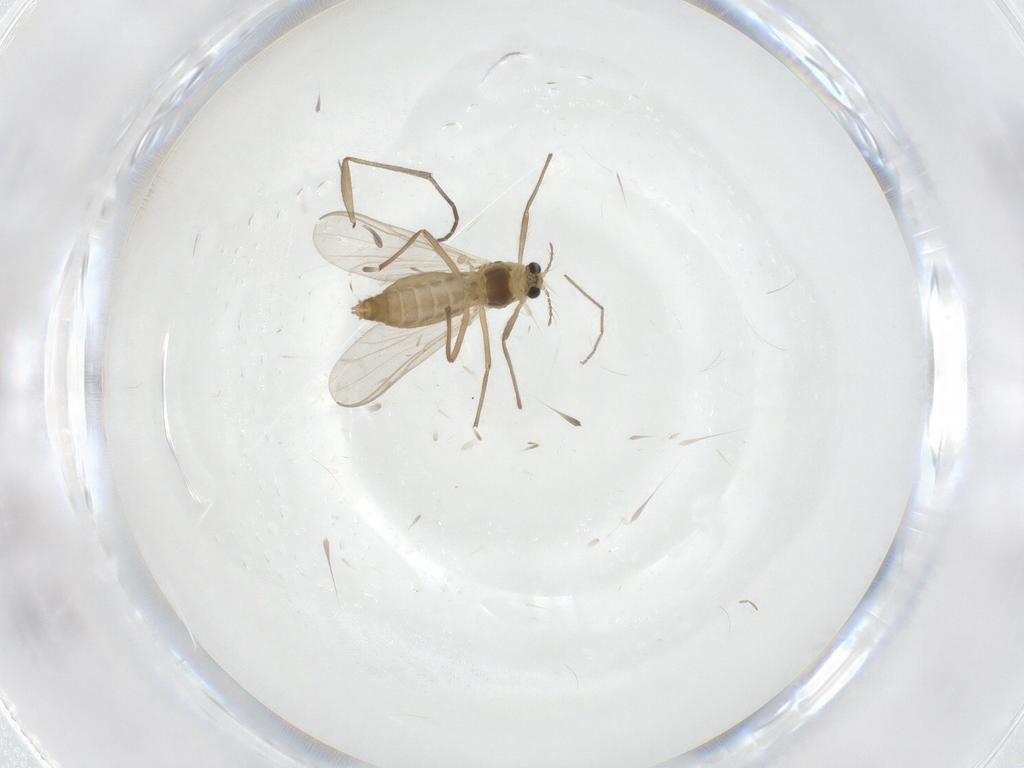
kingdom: Animalia
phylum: Arthropoda
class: Insecta
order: Diptera
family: Chironomidae
